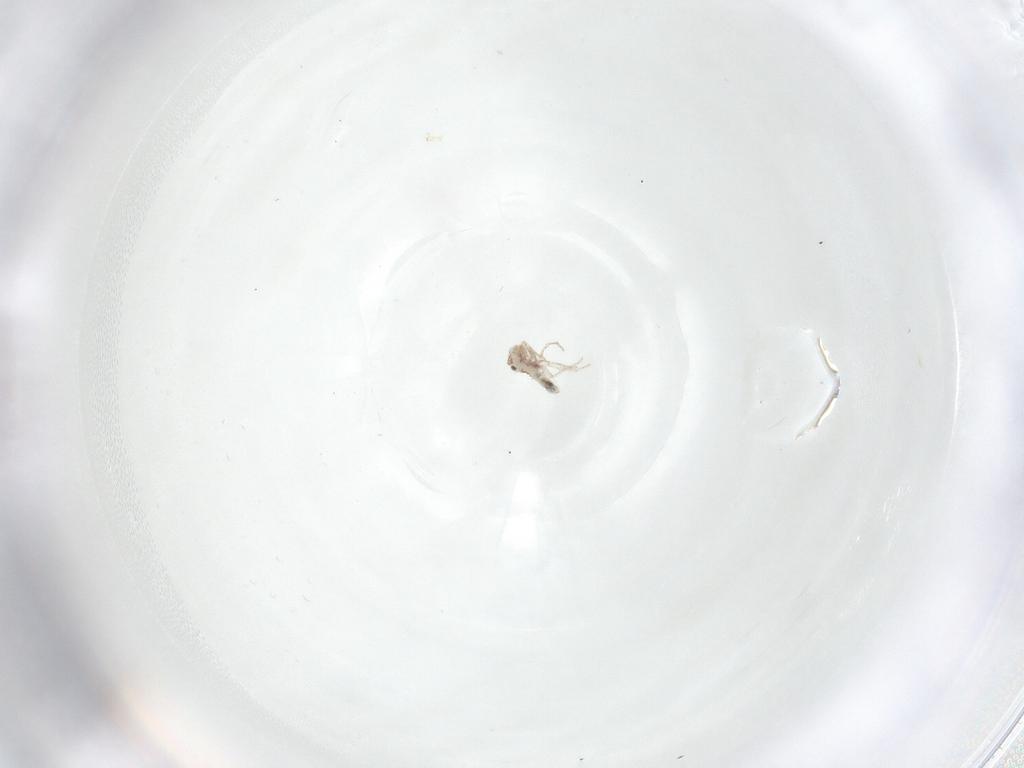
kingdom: Animalia
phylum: Arthropoda
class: Insecta
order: Psocodea
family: Lepidopsocidae
